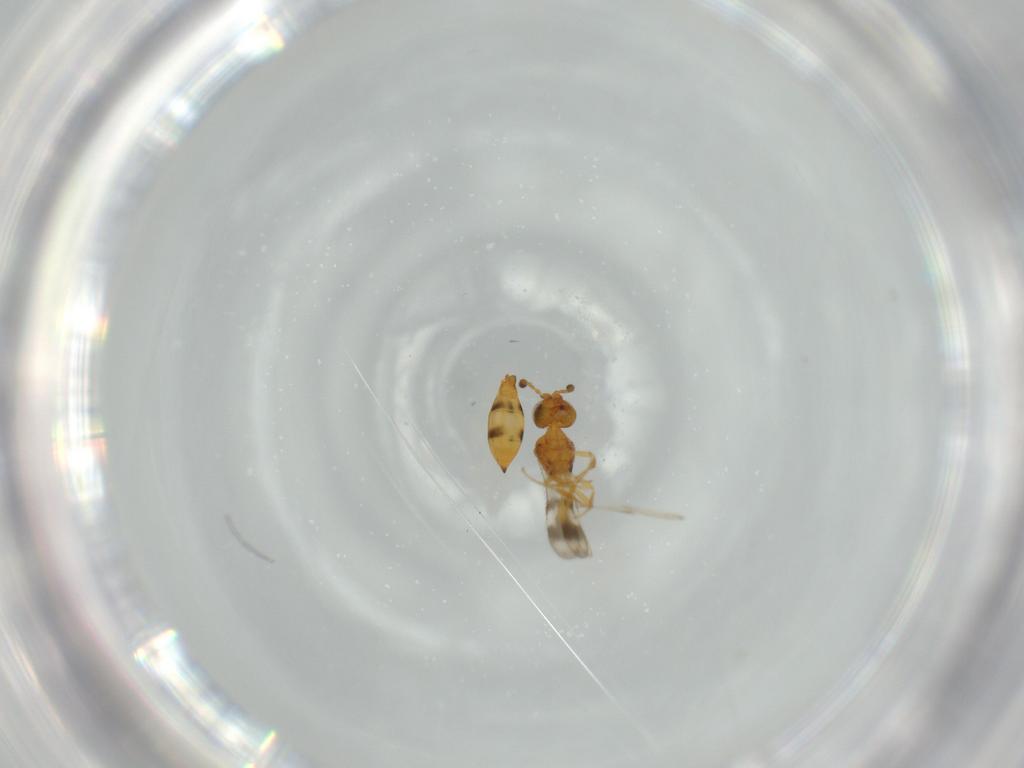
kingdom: Animalia
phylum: Arthropoda
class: Insecta
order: Hymenoptera
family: Scelionidae
